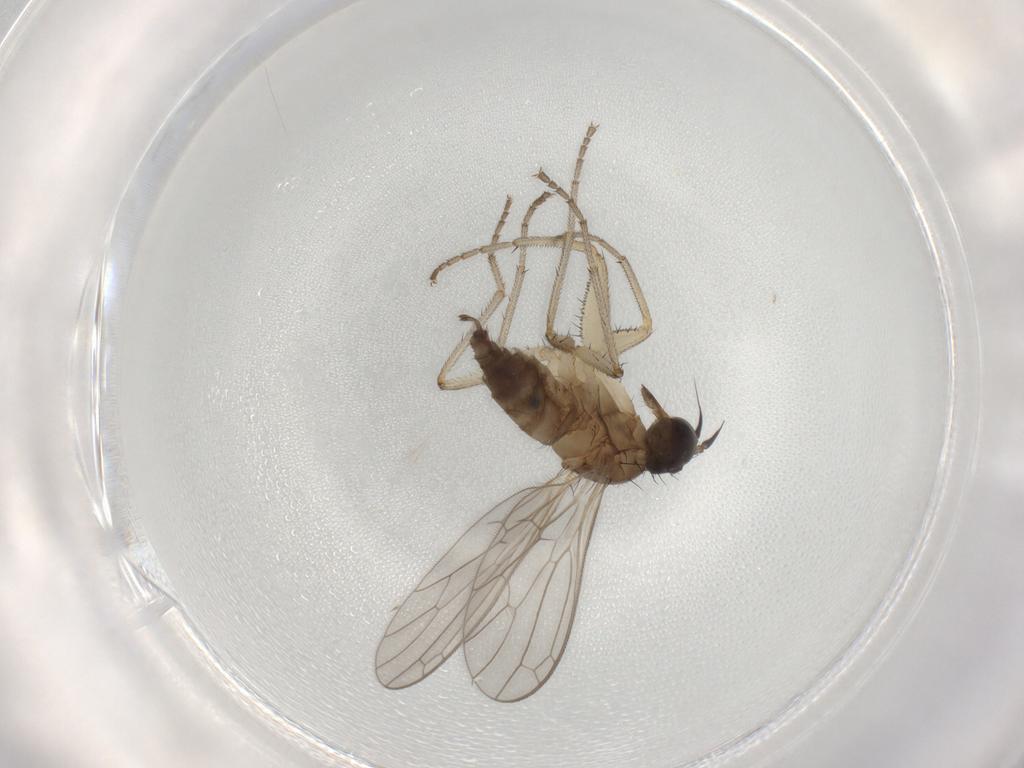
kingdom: Animalia
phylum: Arthropoda
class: Insecta
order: Diptera
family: Empididae
